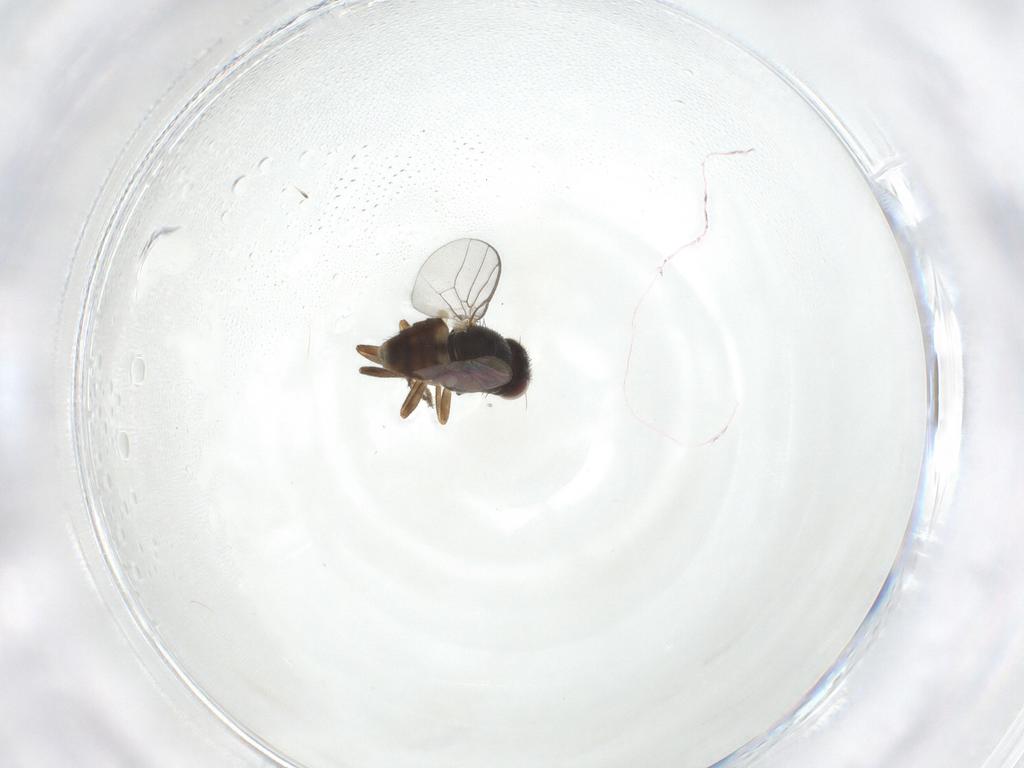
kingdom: Animalia
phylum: Arthropoda
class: Insecta
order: Diptera
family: Chloropidae
